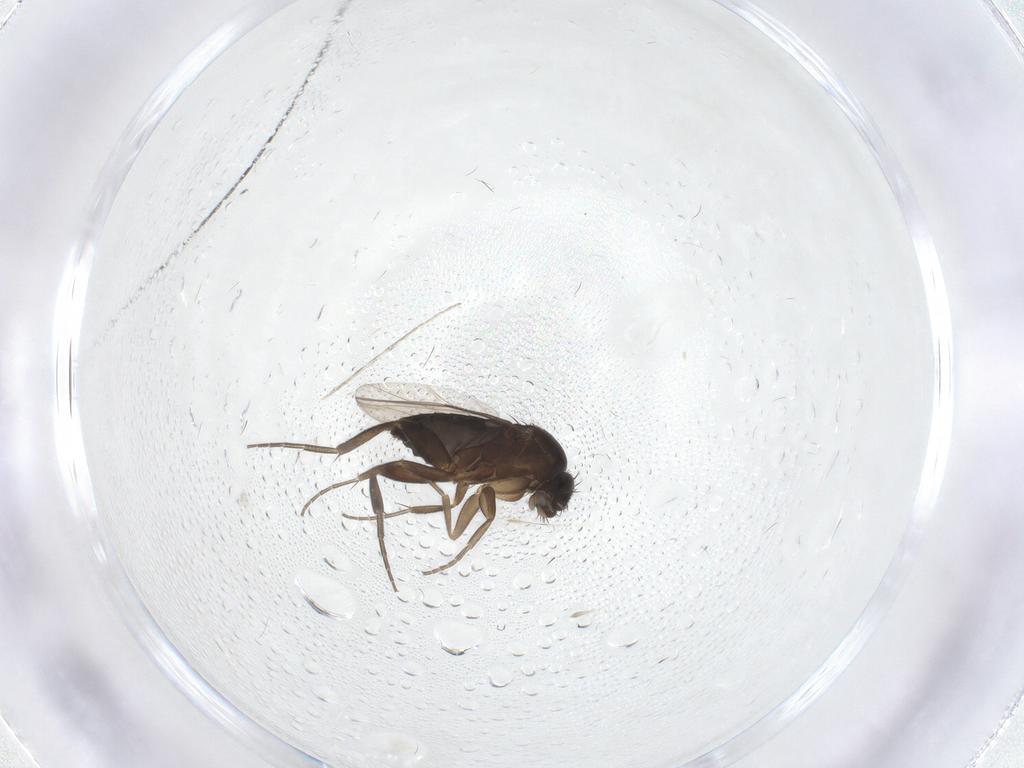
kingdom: Animalia
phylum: Arthropoda
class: Insecta
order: Diptera
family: Phoridae
